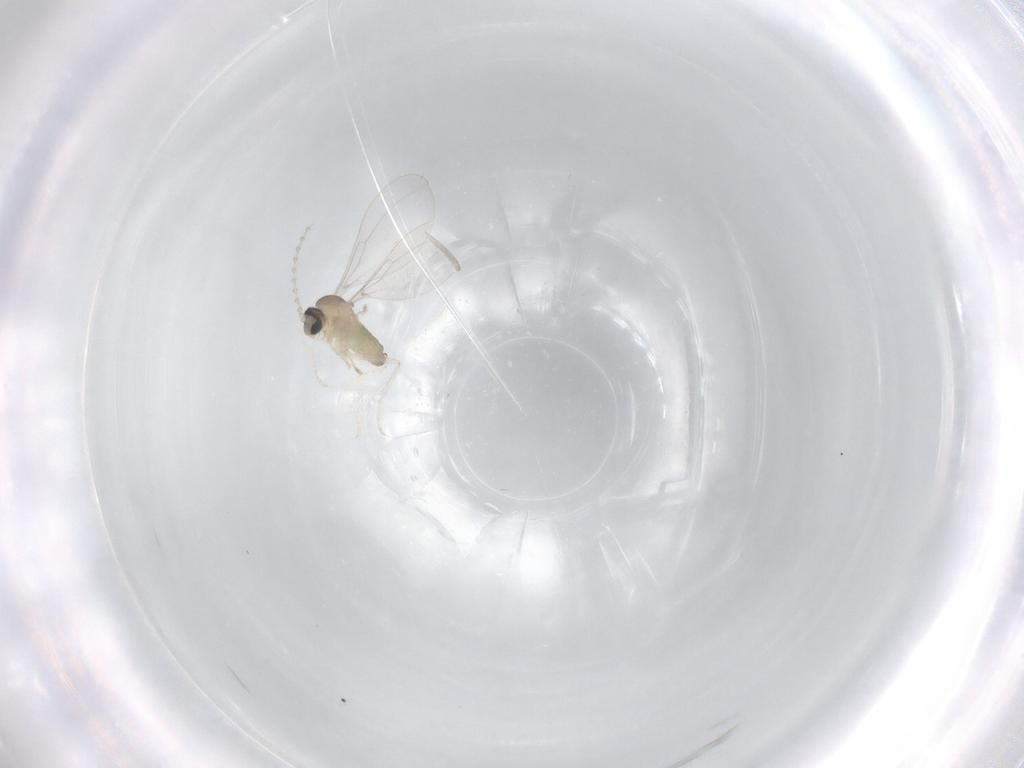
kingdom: Animalia
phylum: Arthropoda
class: Insecta
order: Diptera
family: Cecidomyiidae
